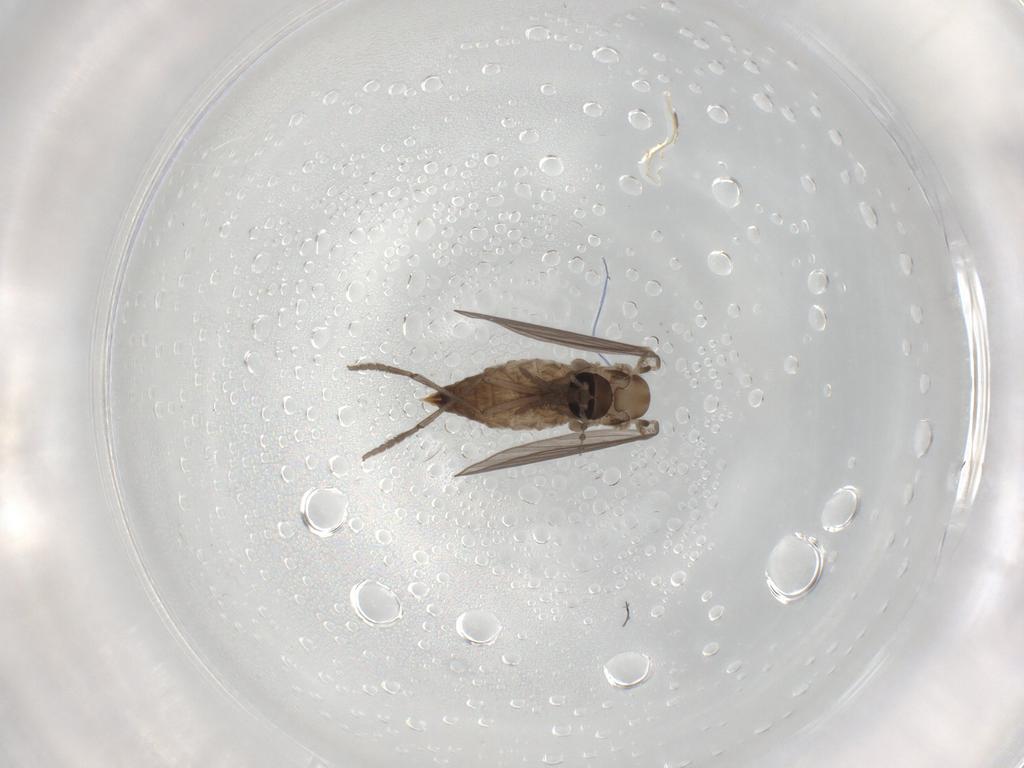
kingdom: Animalia
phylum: Arthropoda
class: Insecta
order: Diptera
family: Psychodidae
